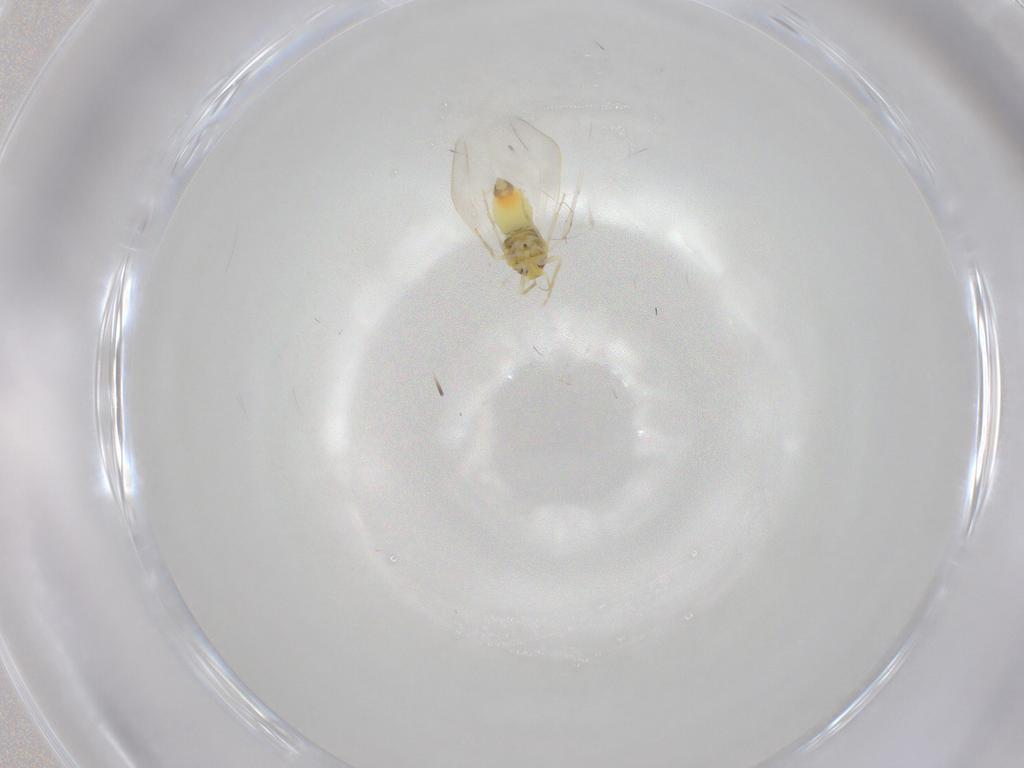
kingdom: Animalia
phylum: Arthropoda
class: Insecta
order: Hemiptera
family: Aleyrodidae
